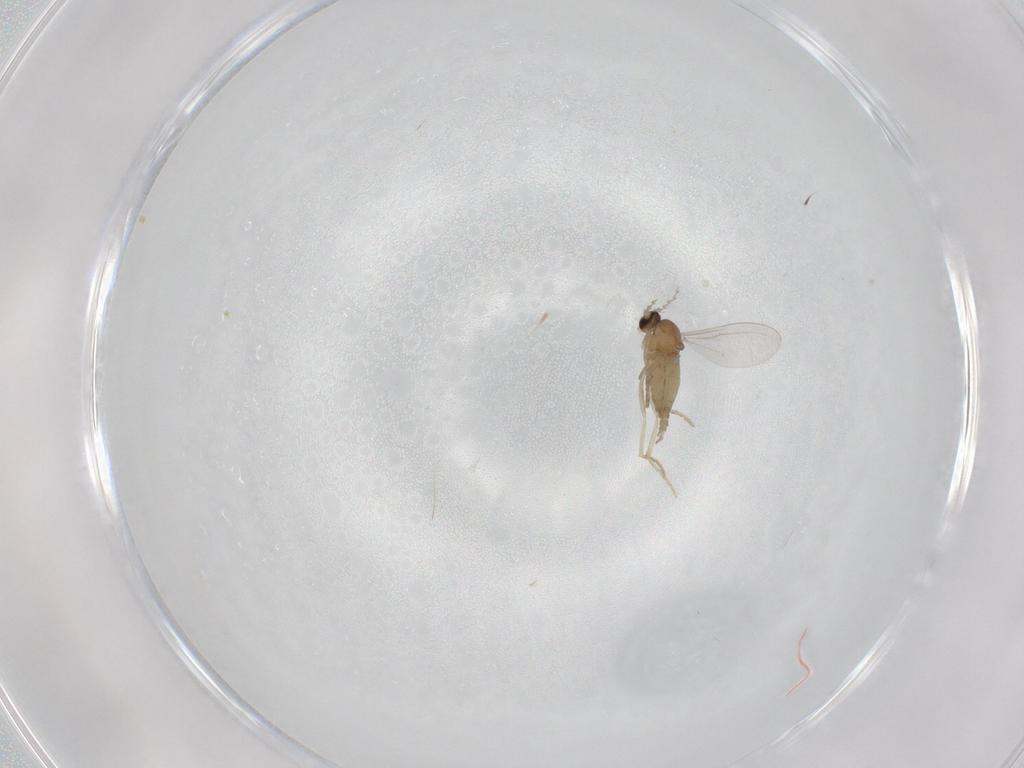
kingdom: Animalia
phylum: Arthropoda
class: Insecta
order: Diptera
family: Cecidomyiidae
